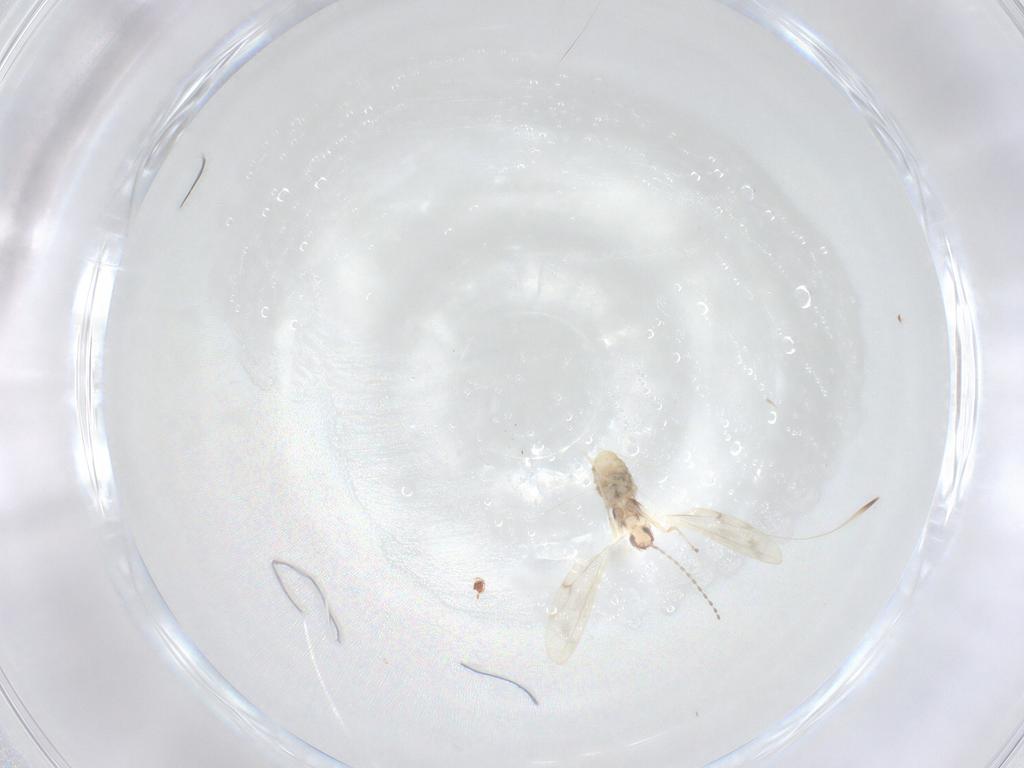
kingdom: Animalia
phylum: Arthropoda
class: Insecta
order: Diptera
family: Cecidomyiidae
